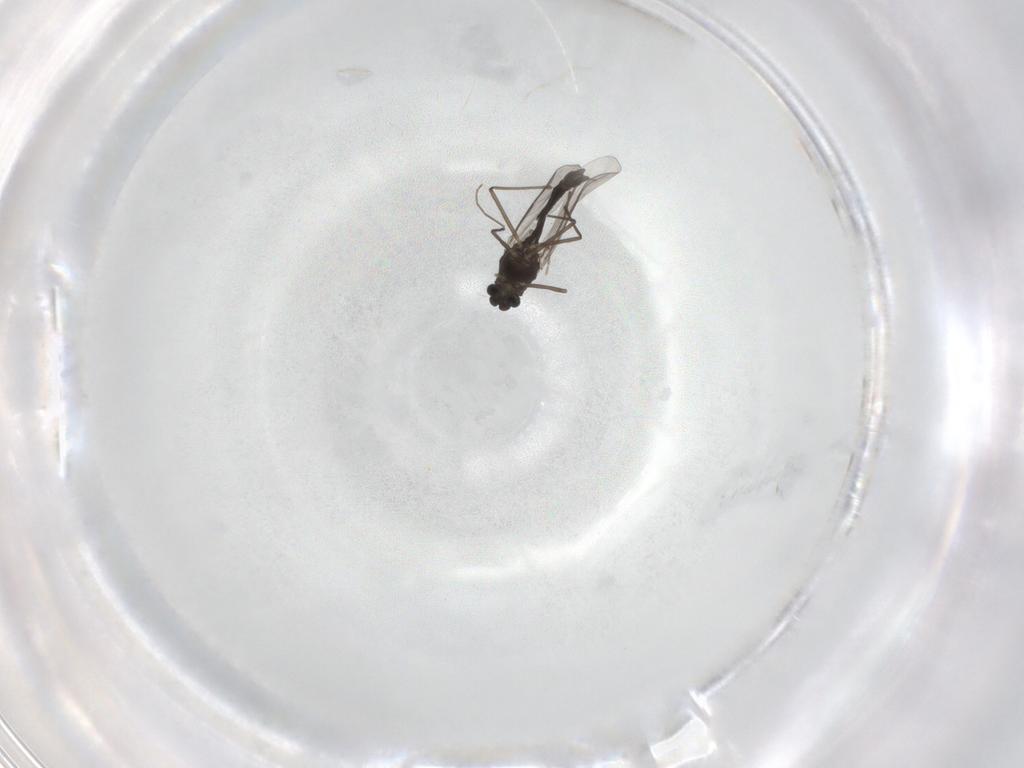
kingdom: Animalia
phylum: Arthropoda
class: Insecta
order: Diptera
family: Chironomidae
